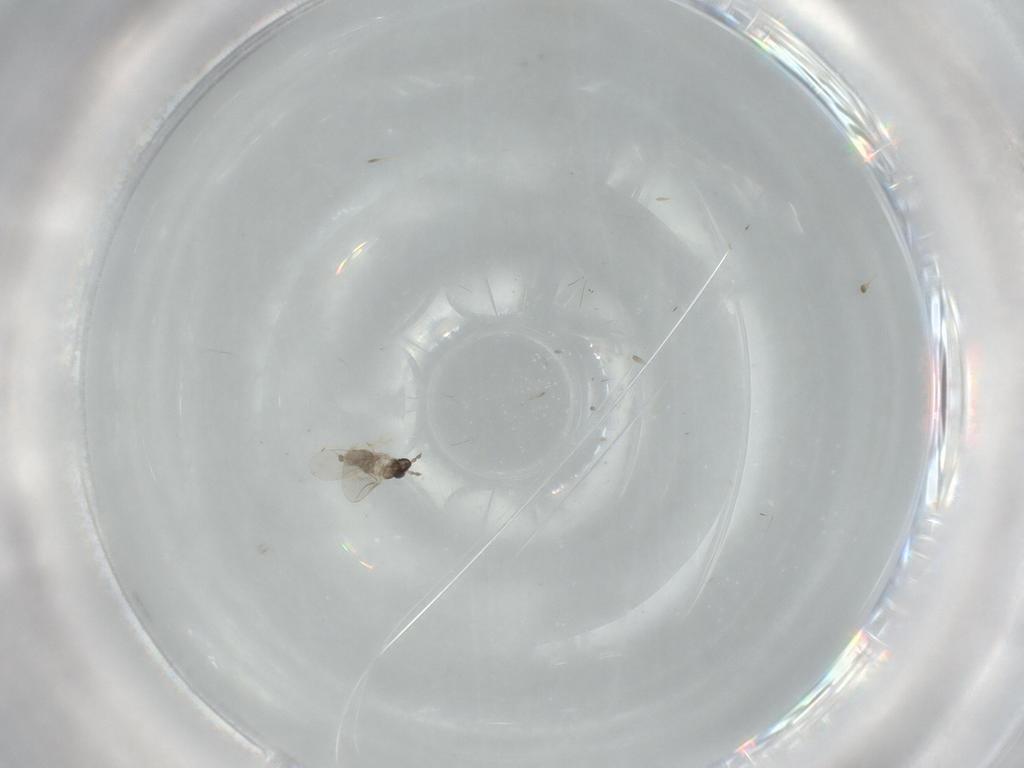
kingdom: Animalia
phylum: Arthropoda
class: Insecta
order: Diptera
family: Cecidomyiidae
